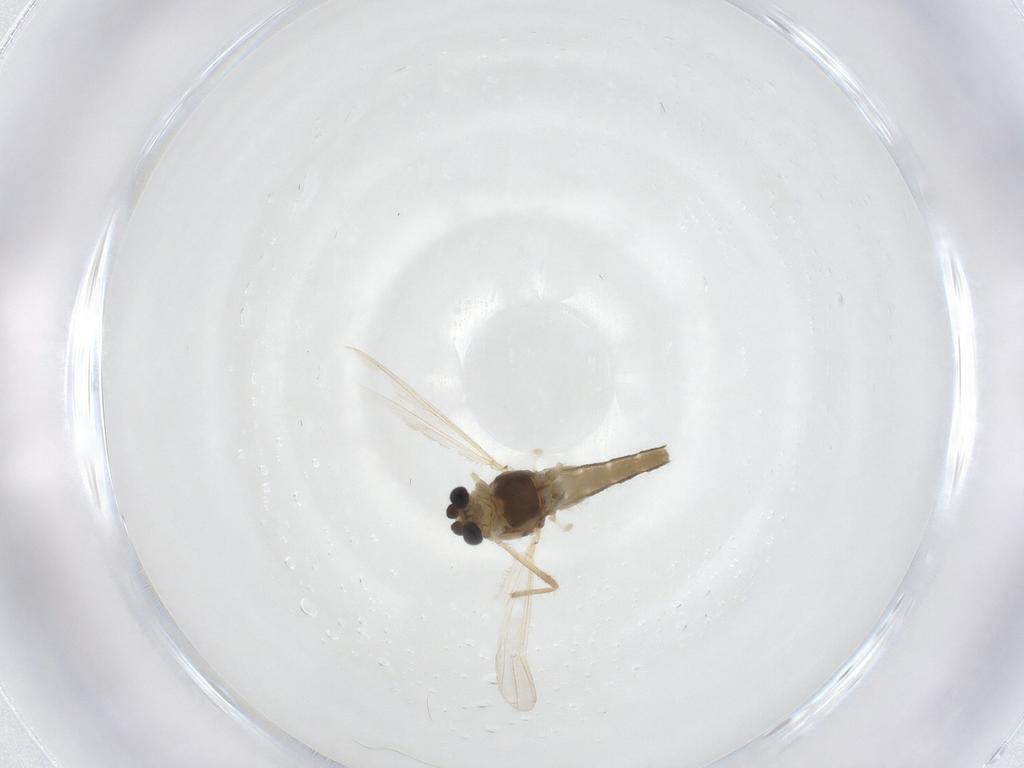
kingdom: Animalia
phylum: Arthropoda
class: Insecta
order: Diptera
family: Chironomidae
